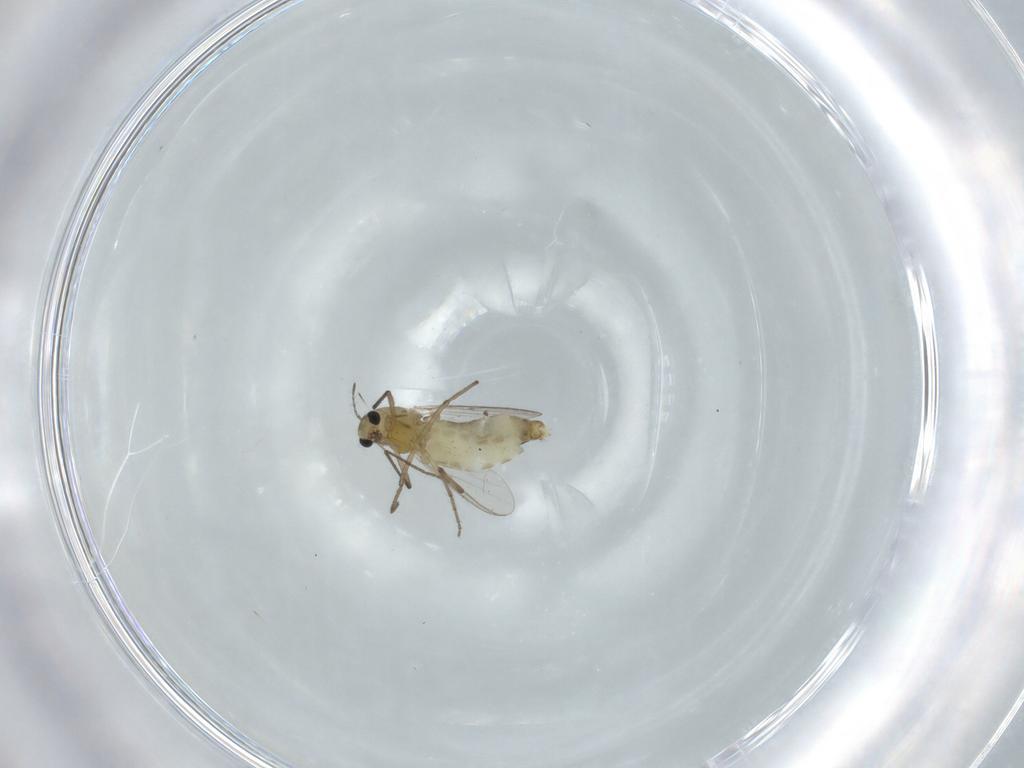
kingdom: Animalia
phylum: Arthropoda
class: Insecta
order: Diptera
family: Chironomidae
